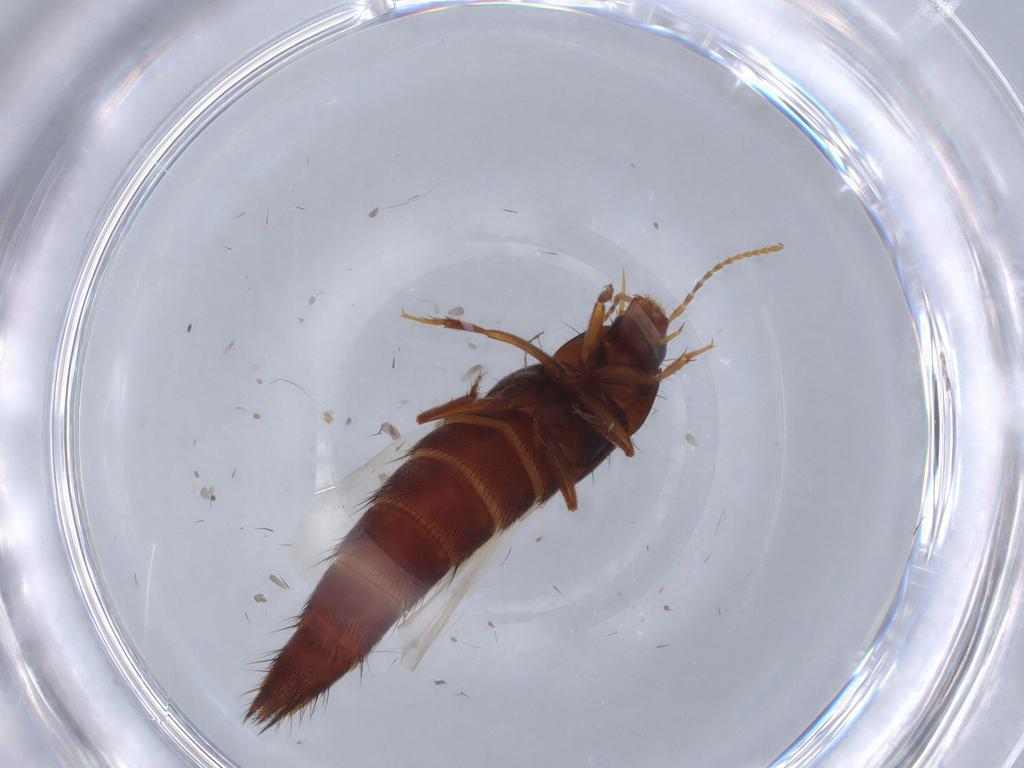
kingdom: Animalia
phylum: Arthropoda
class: Insecta
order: Coleoptera
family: Staphylinidae
